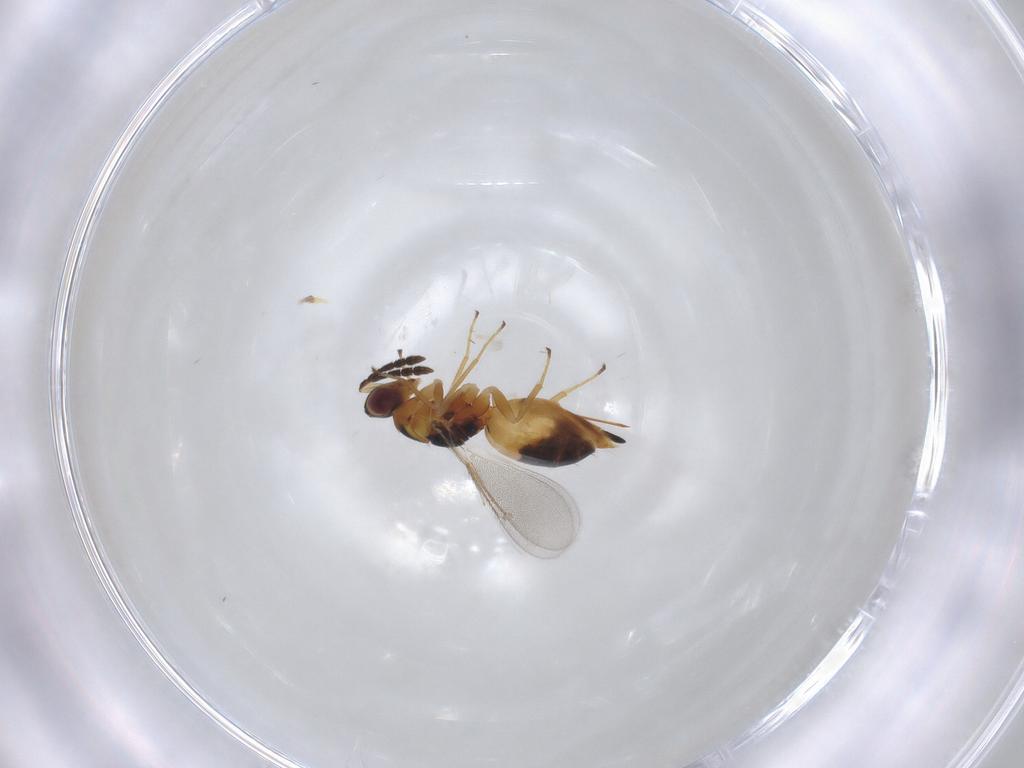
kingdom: Animalia
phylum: Arthropoda
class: Insecta
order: Hymenoptera
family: Eulophidae
